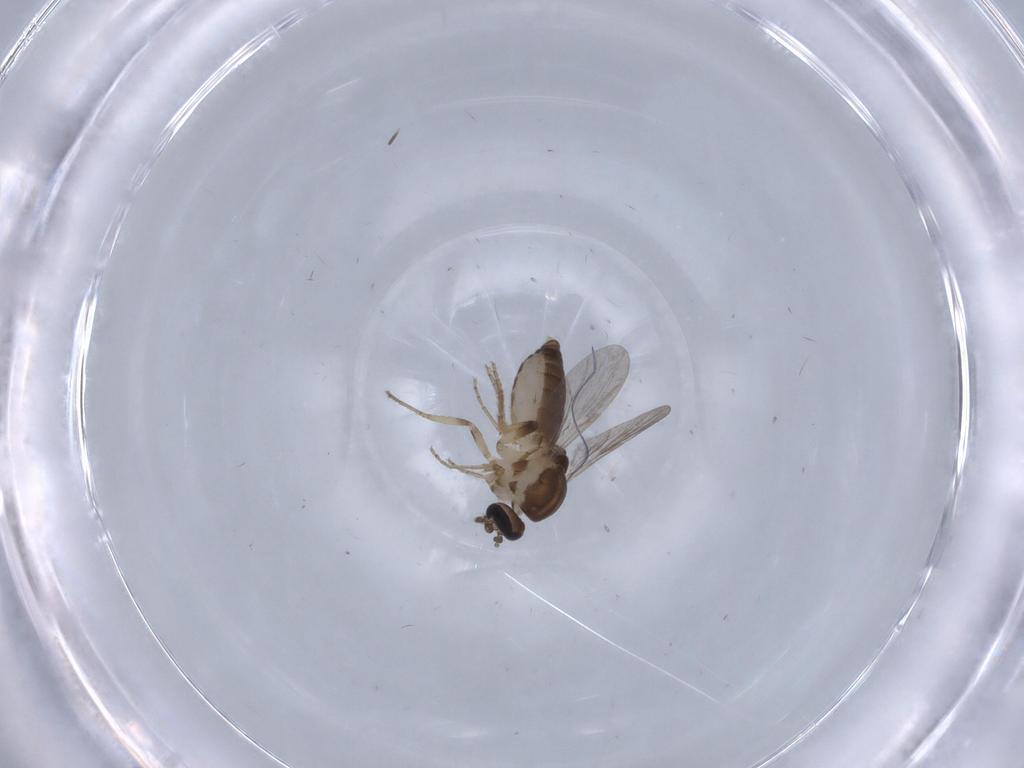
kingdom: Animalia
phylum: Arthropoda
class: Insecta
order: Diptera
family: Ceratopogonidae
